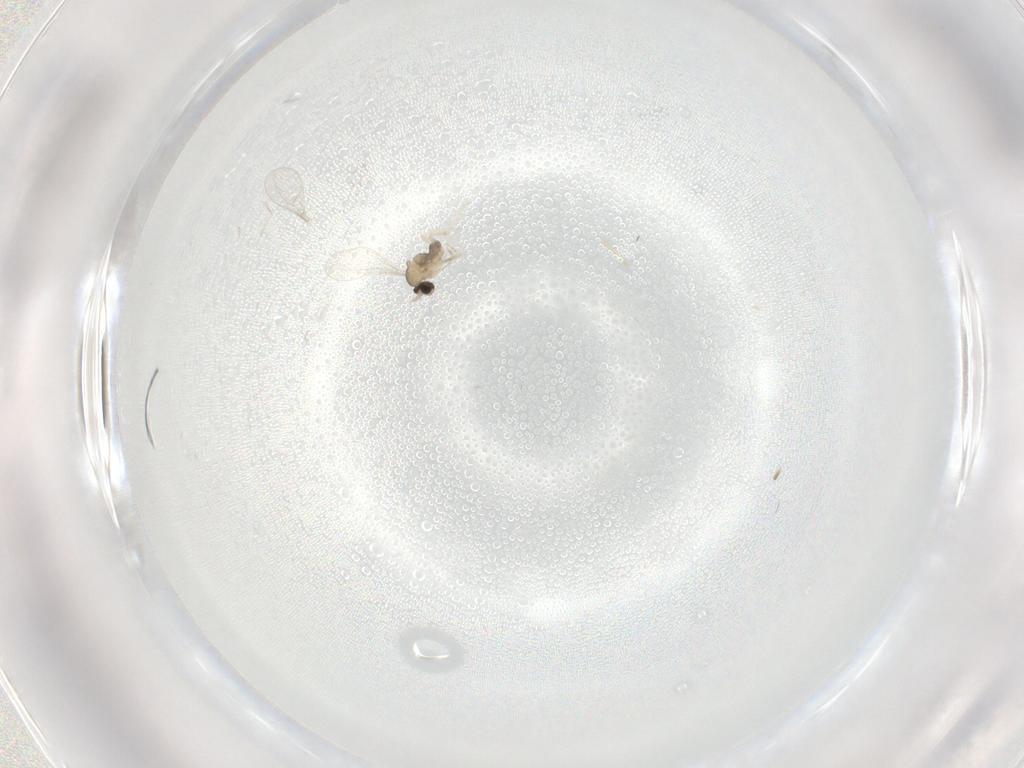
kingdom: Animalia
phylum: Arthropoda
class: Insecta
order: Diptera
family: Cecidomyiidae
